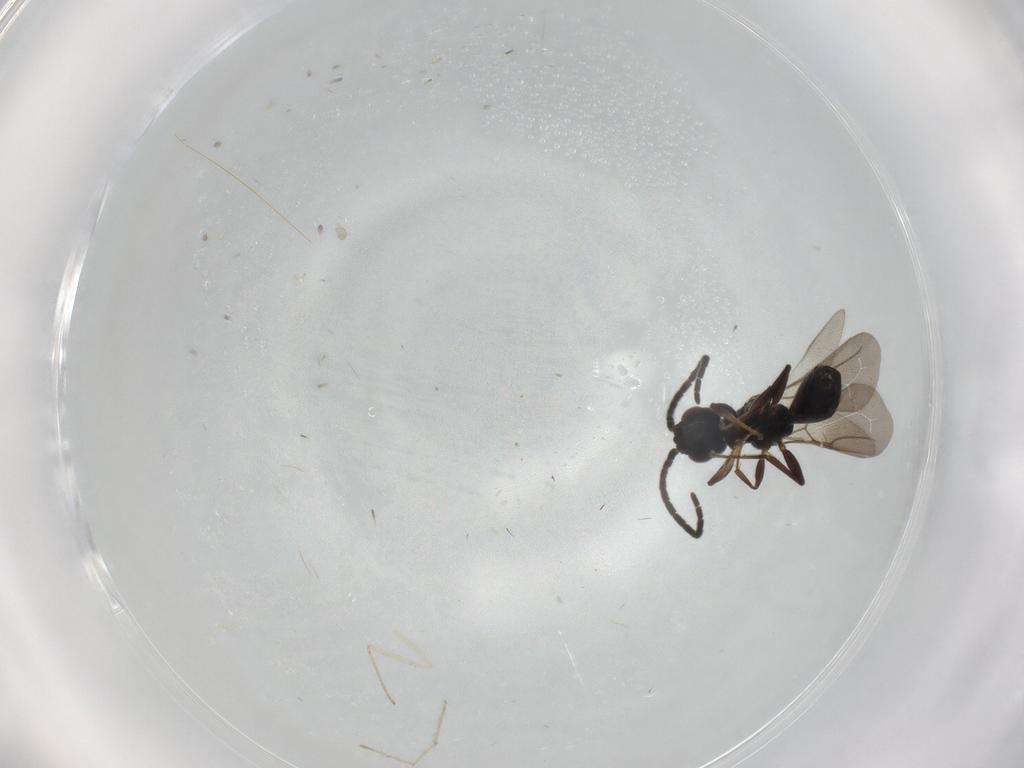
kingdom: Animalia
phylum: Arthropoda
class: Insecta
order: Hymenoptera
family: Bethylidae
